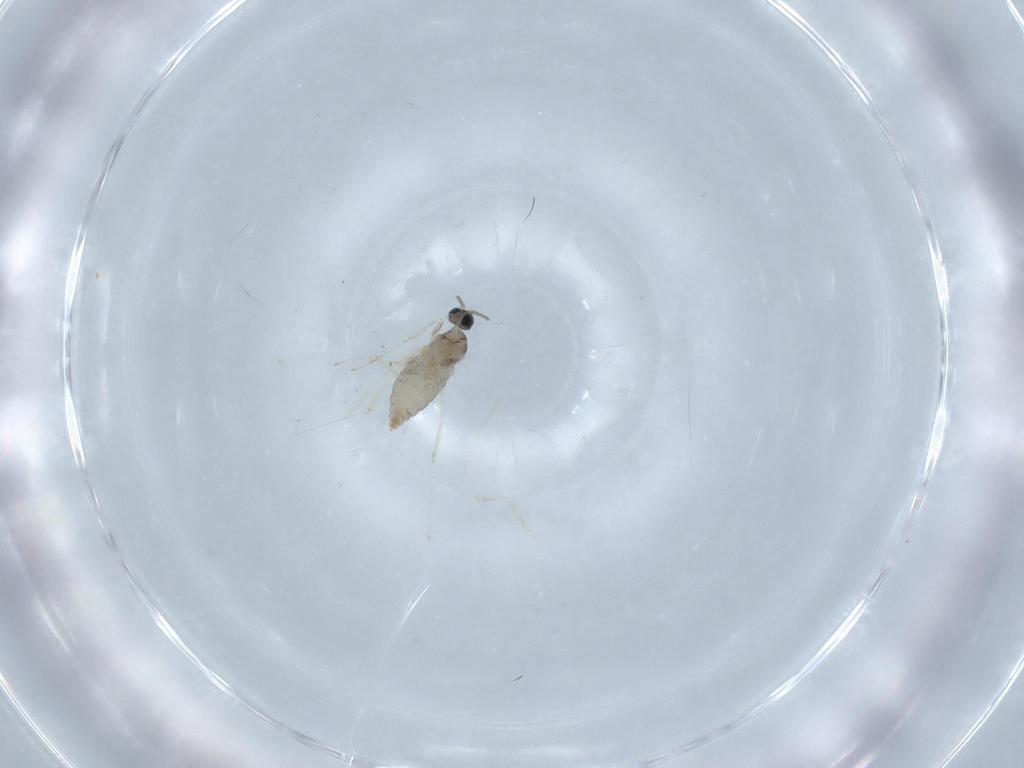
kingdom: Animalia
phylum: Arthropoda
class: Insecta
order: Diptera
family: Cecidomyiidae
